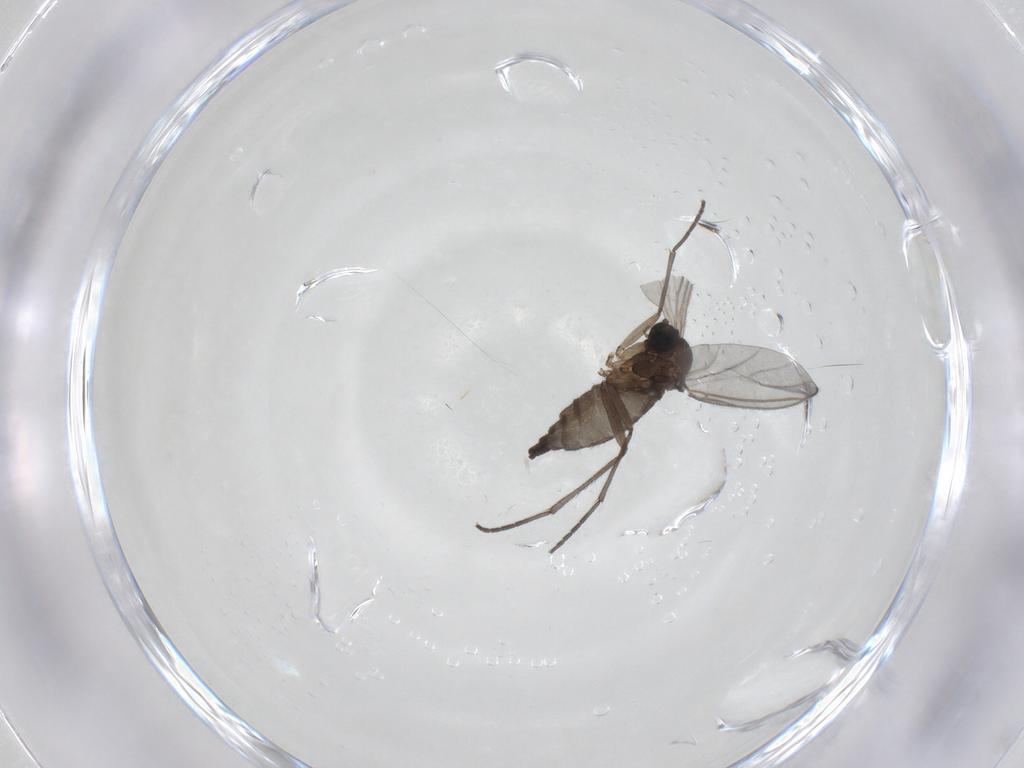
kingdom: Animalia
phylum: Arthropoda
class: Insecta
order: Diptera
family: Sciaridae
